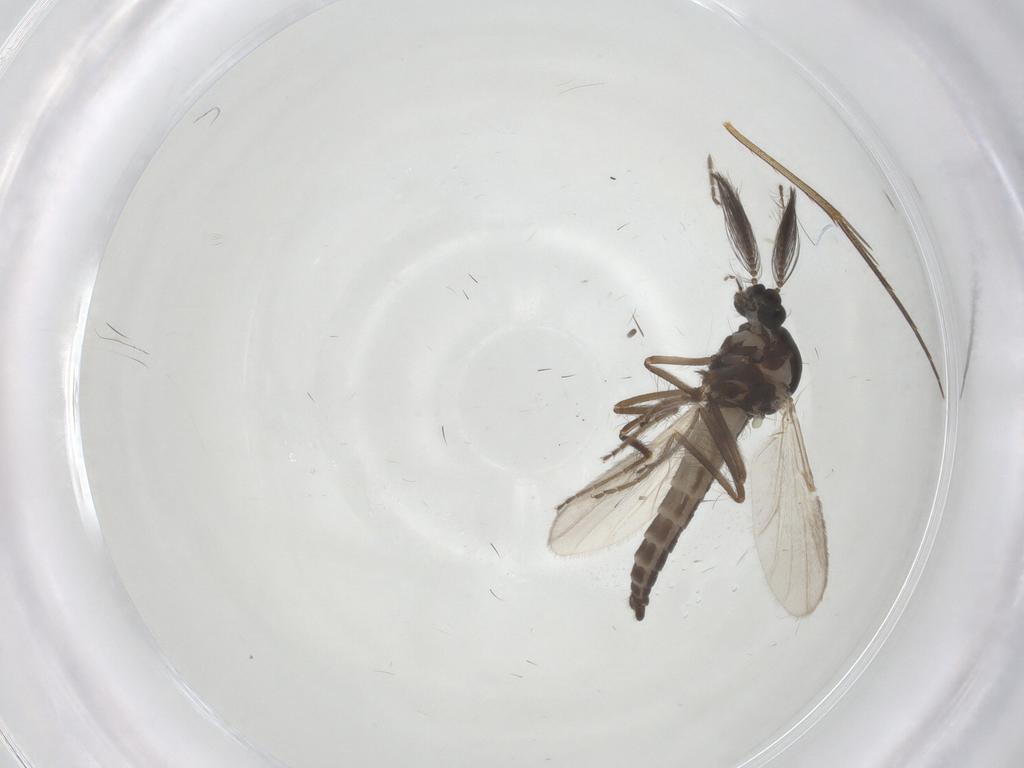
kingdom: Animalia
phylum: Arthropoda
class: Insecta
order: Diptera
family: Ceratopogonidae
